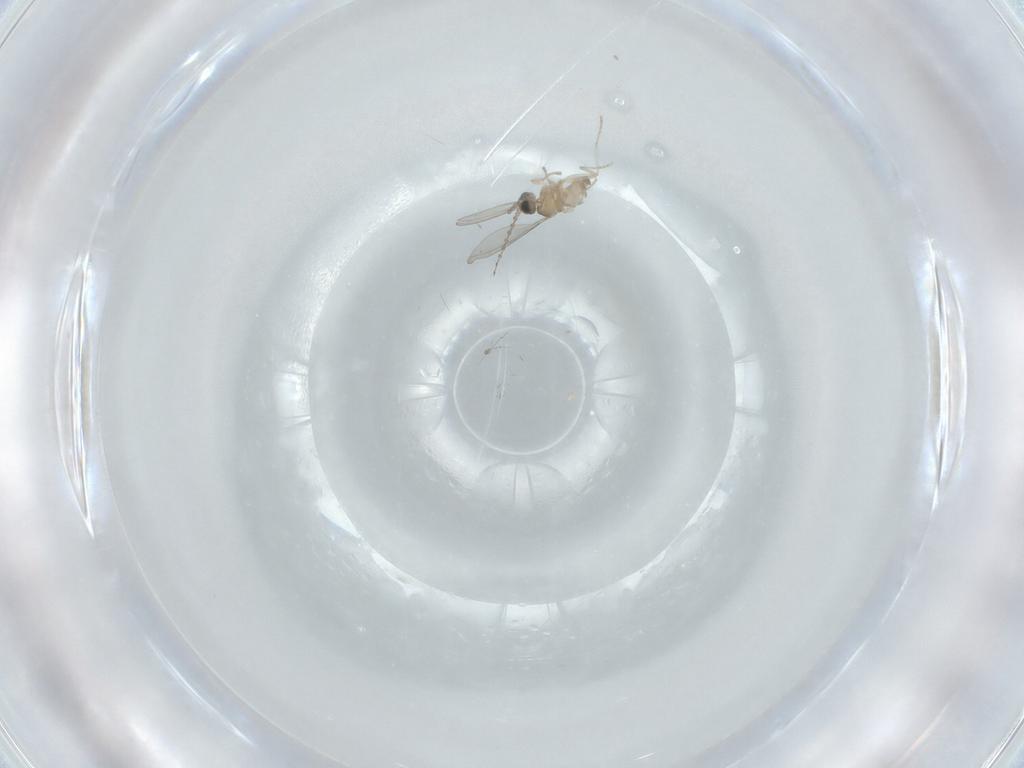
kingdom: Animalia
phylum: Arthropoda
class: Insecta
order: Diptera
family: Cecidomyiidae
